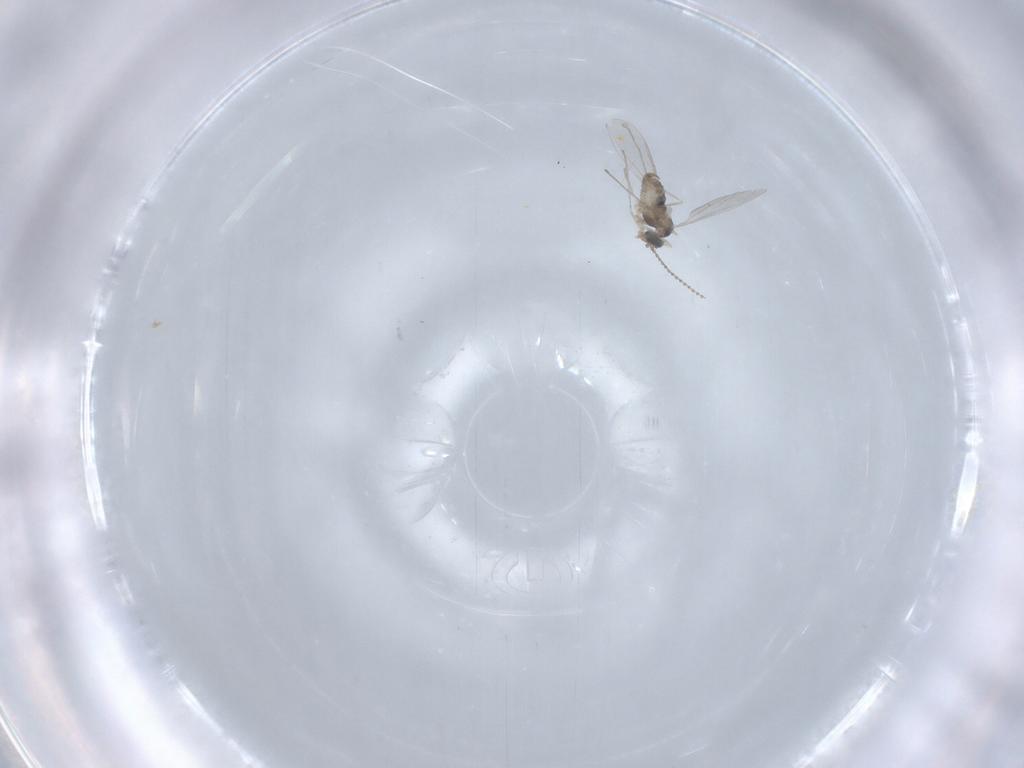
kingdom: Animalia
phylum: Arthropoda
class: Insecta
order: Diptera
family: Cecidomyiidae
